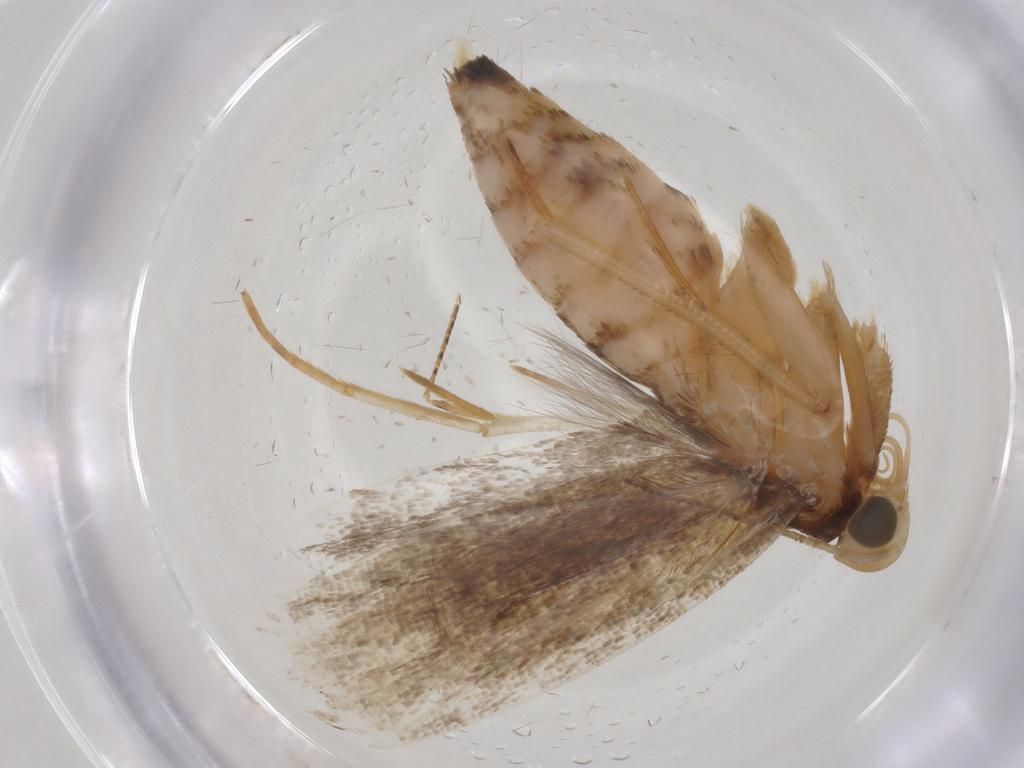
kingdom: Animalia
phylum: Arthropoda
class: Insecta
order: Lepidoptera
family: Gelechiidae
